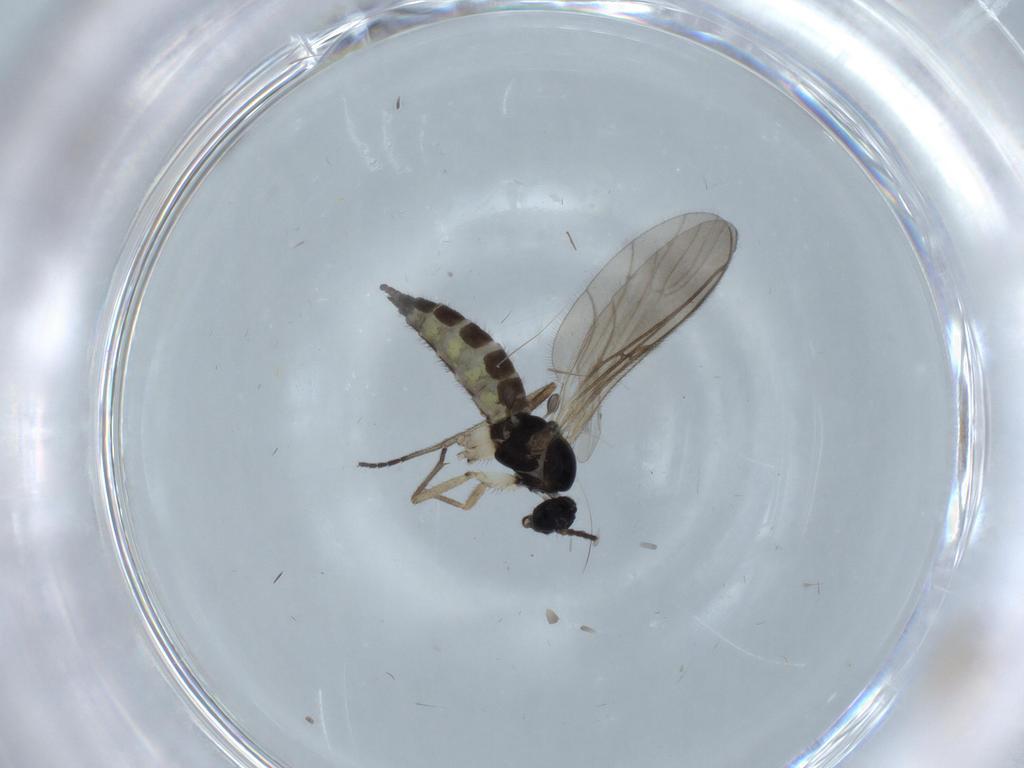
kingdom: Animalia
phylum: Arthropoda
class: Insecta
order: Diptera
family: Sciaridae
